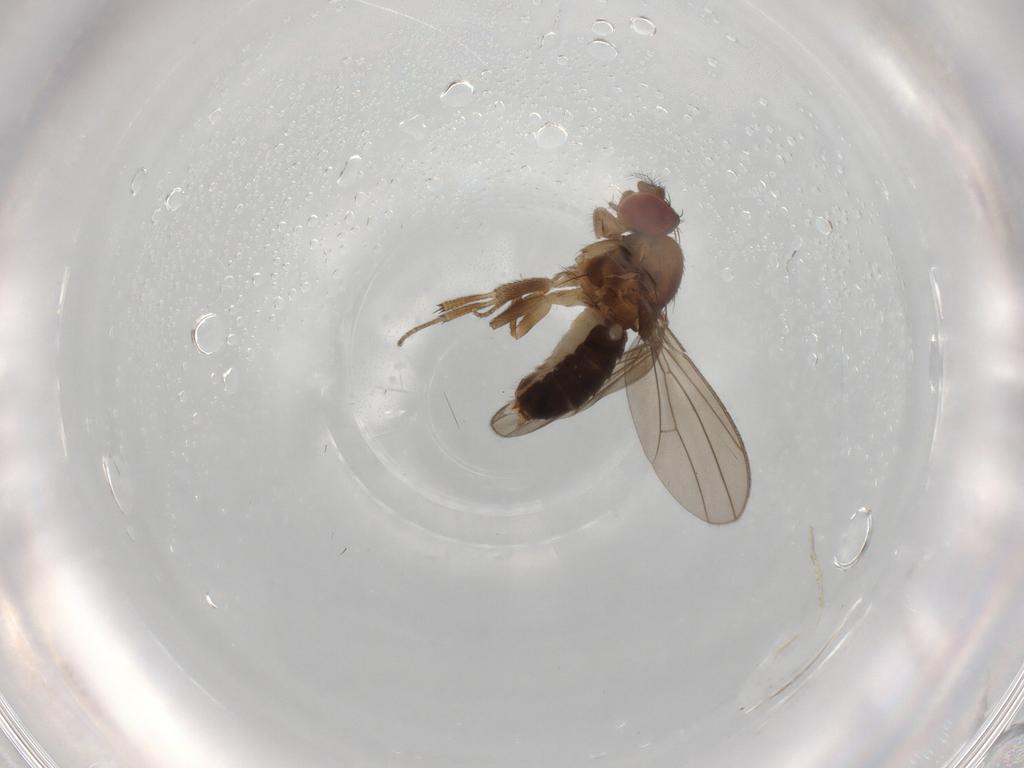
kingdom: Animalia
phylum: Arthropoda
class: Insecta
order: Diptera
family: Drosophilidae
